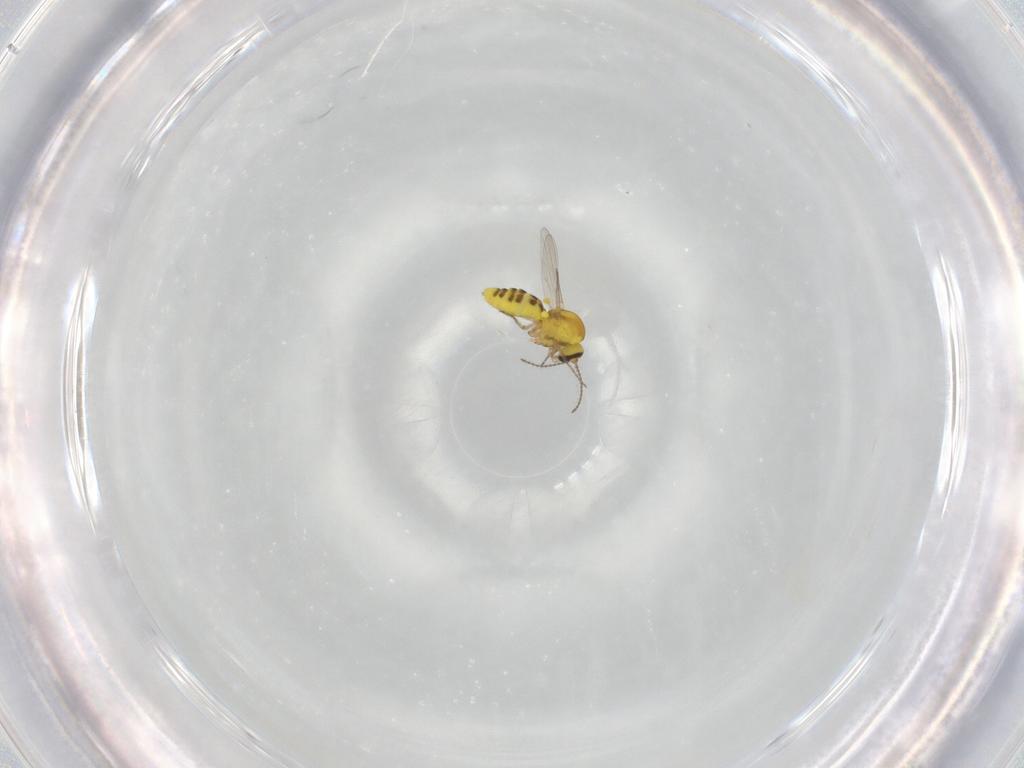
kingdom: Animalia
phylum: Arthropoda
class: Insecta
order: Diptera
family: Ceratopogonidae
